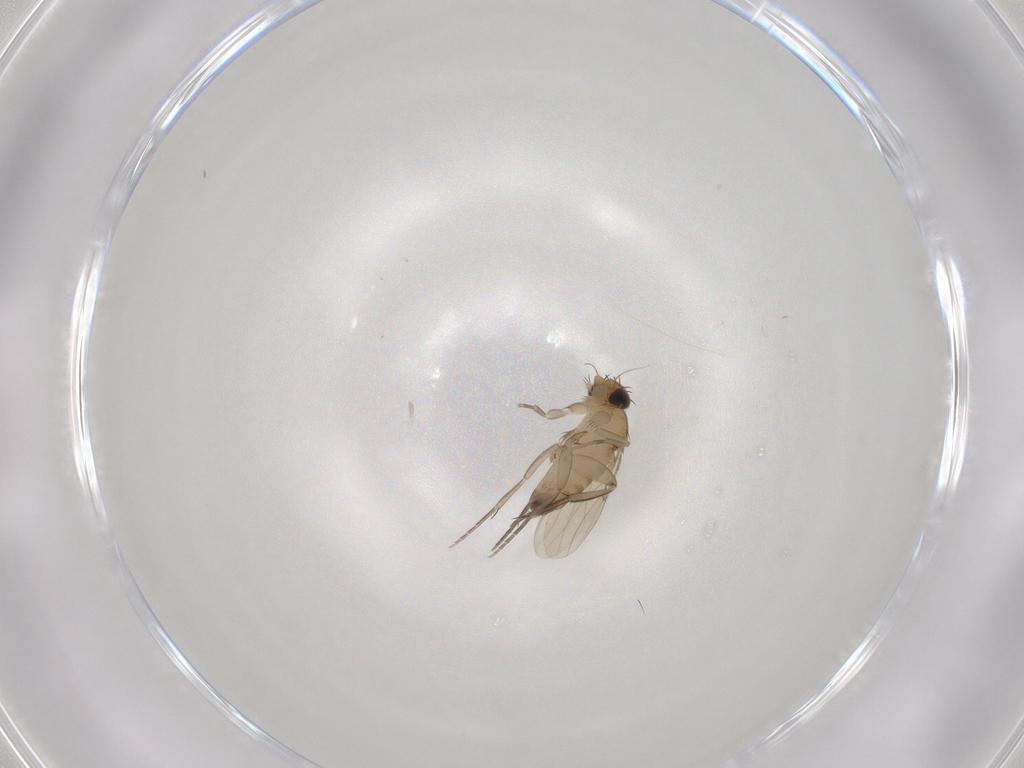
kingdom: Animalia
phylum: Arthropoda
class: Insecta
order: Diptera
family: Phoridae
